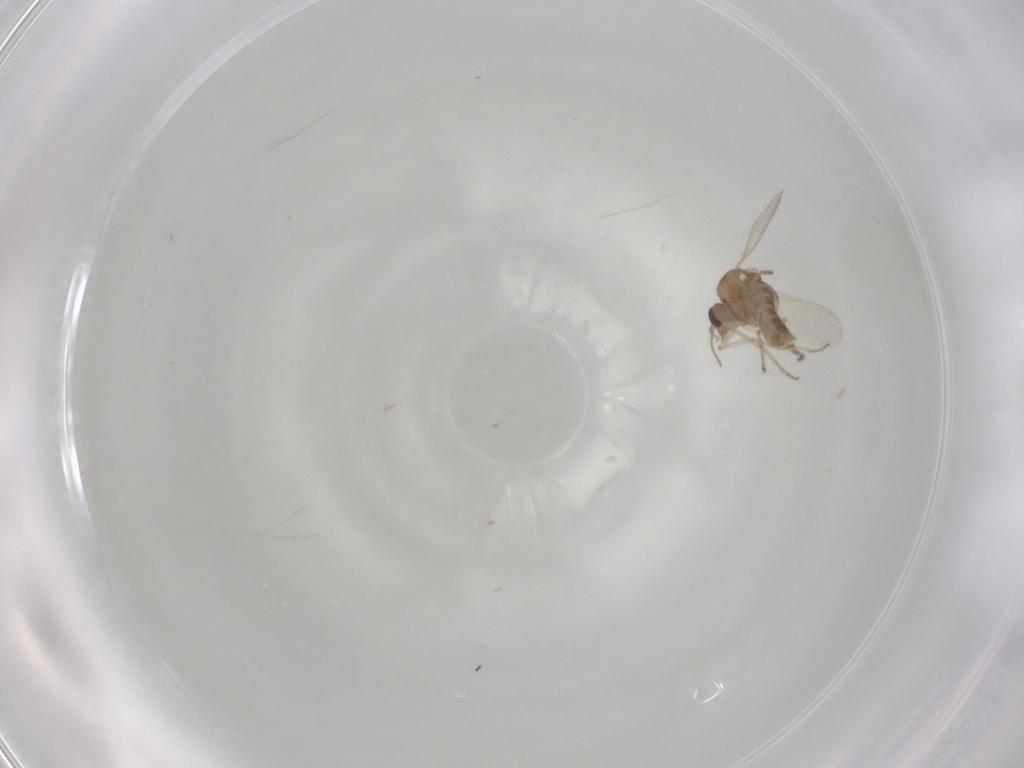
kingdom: Animalia
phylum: Arthropoda
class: Insecta
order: Diptera
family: Ceratopogonidae
